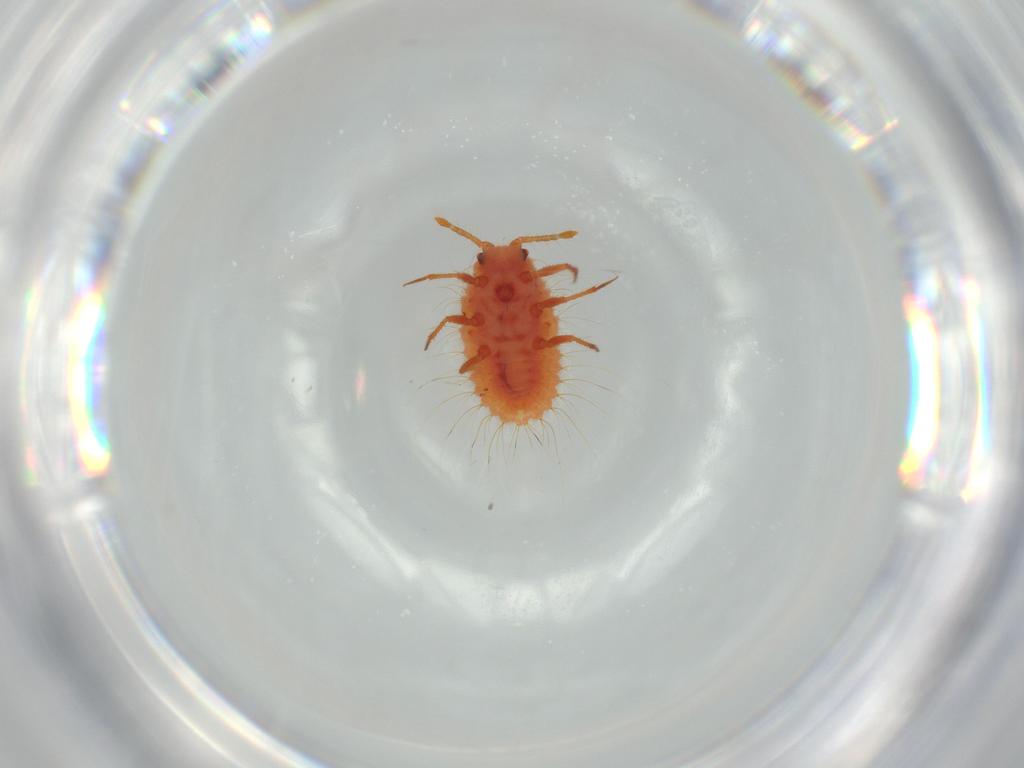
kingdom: Animalia
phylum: Arthropoda
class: Insecta
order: Hemiptera
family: Coccoidea_incertae_sedis
